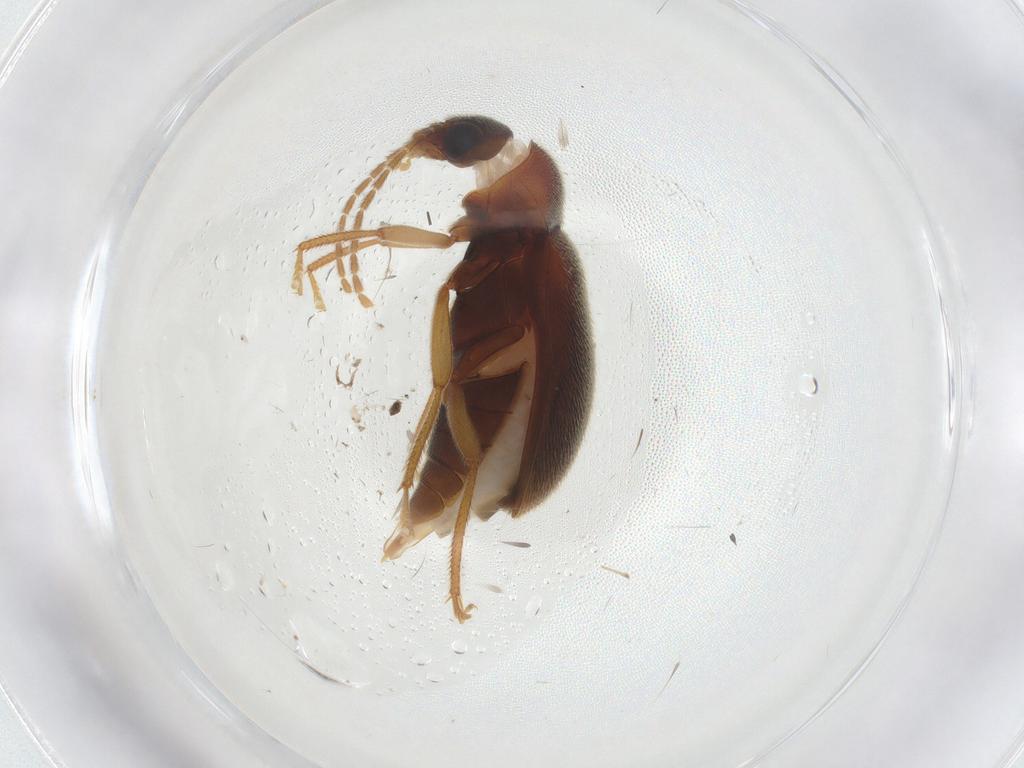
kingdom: Animalia
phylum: Arthropoda
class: Insecta
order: Coleoptera
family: Ptilodactylidae
